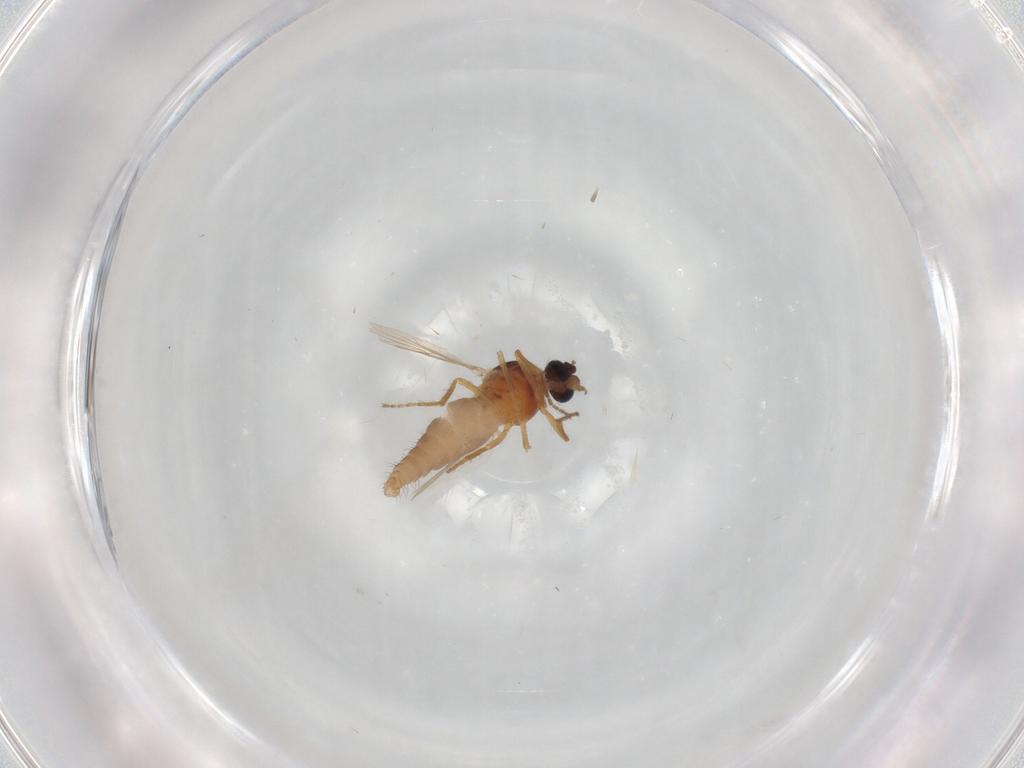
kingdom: Animalia
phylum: Arthropoda
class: Insecta
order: Diptera
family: Ceratopogonidae
